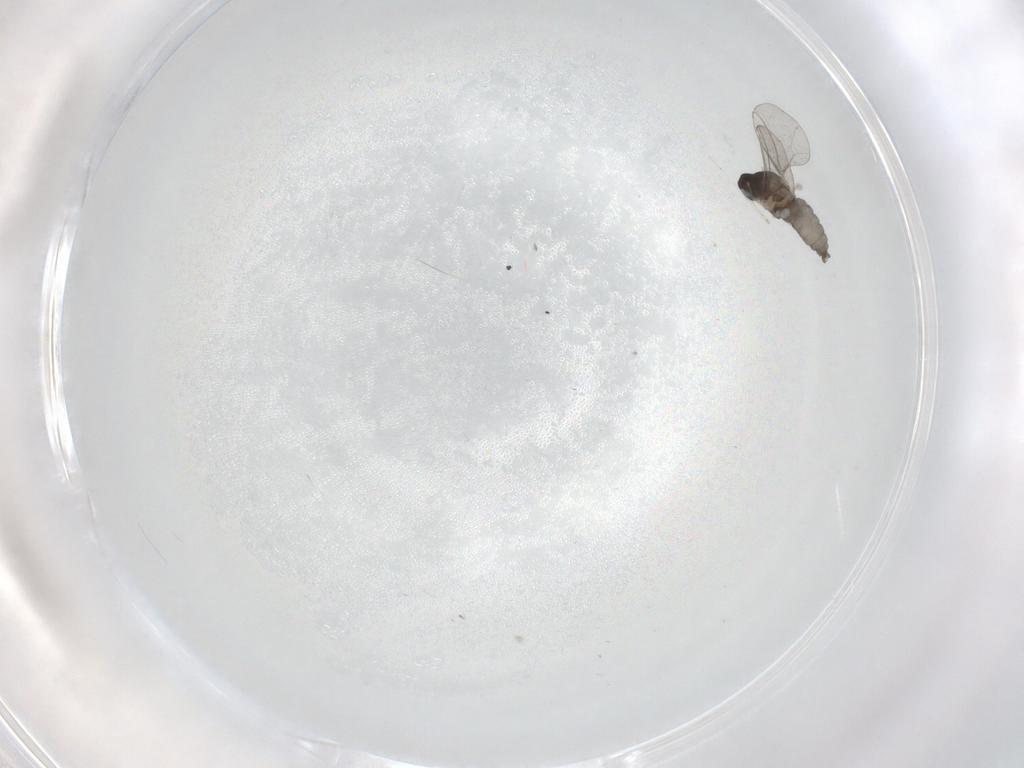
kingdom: Animalia
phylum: Arthropoda
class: Insecta
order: Diptera
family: Cecidomyiidae
